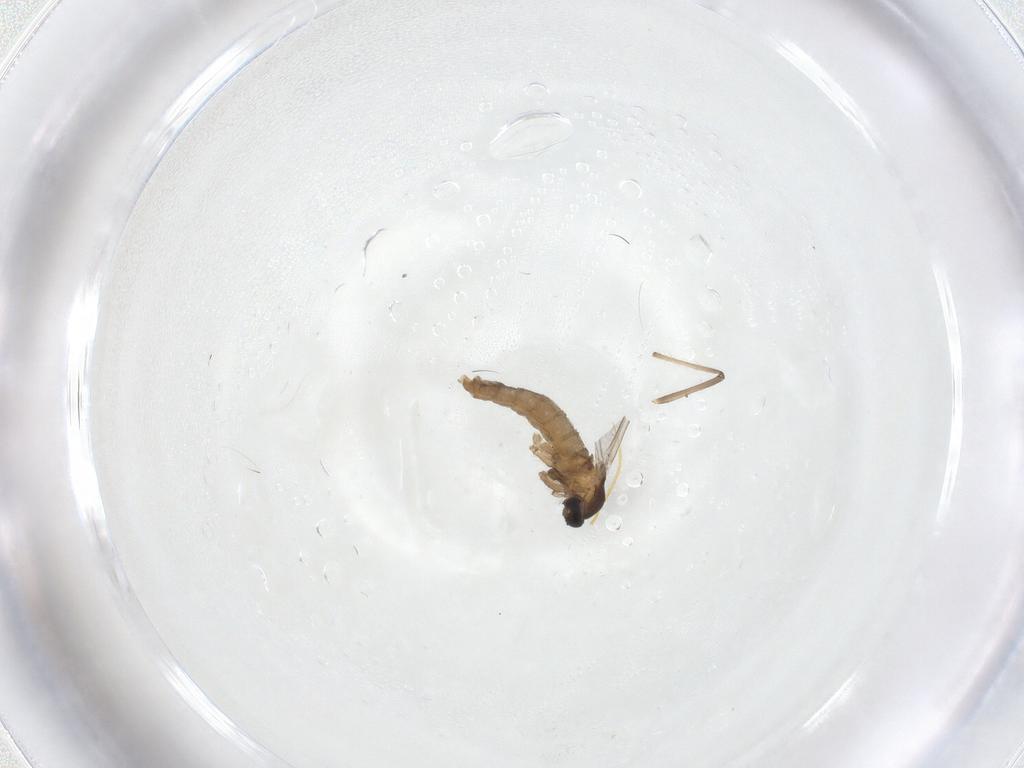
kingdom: Animalia
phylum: Arthropoda
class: Insecta
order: Diptera
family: Cecidomyiidae
